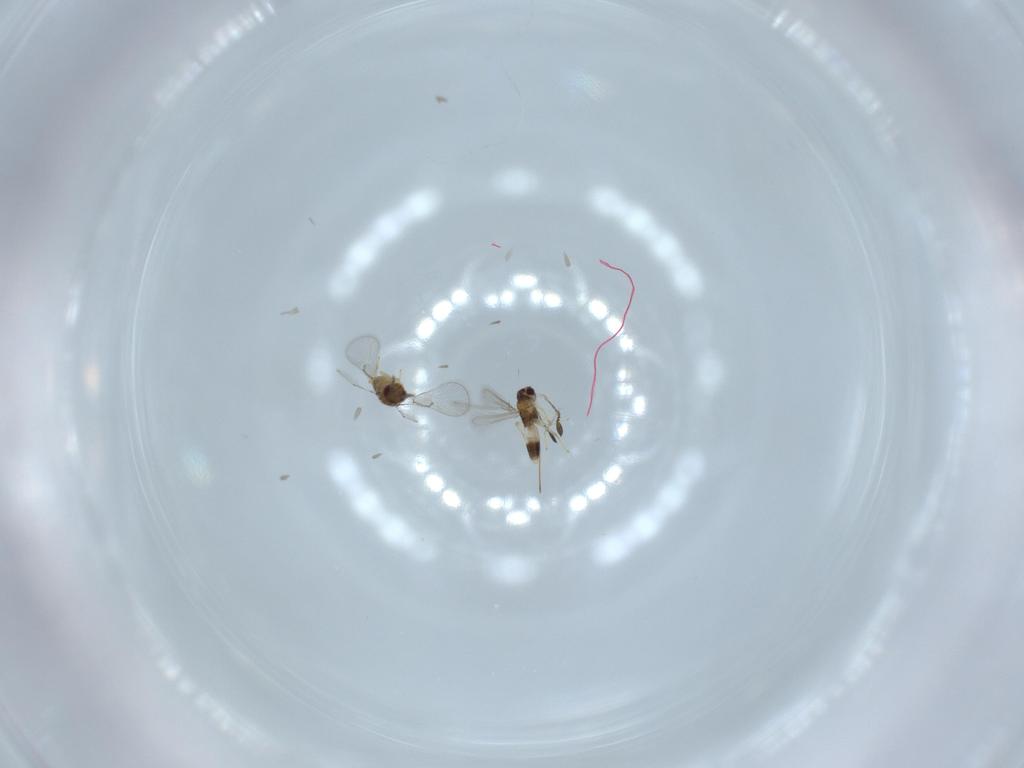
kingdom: Animalia
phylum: Arthropoda
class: Insecta
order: Hymenoptera
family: Mymaridae
